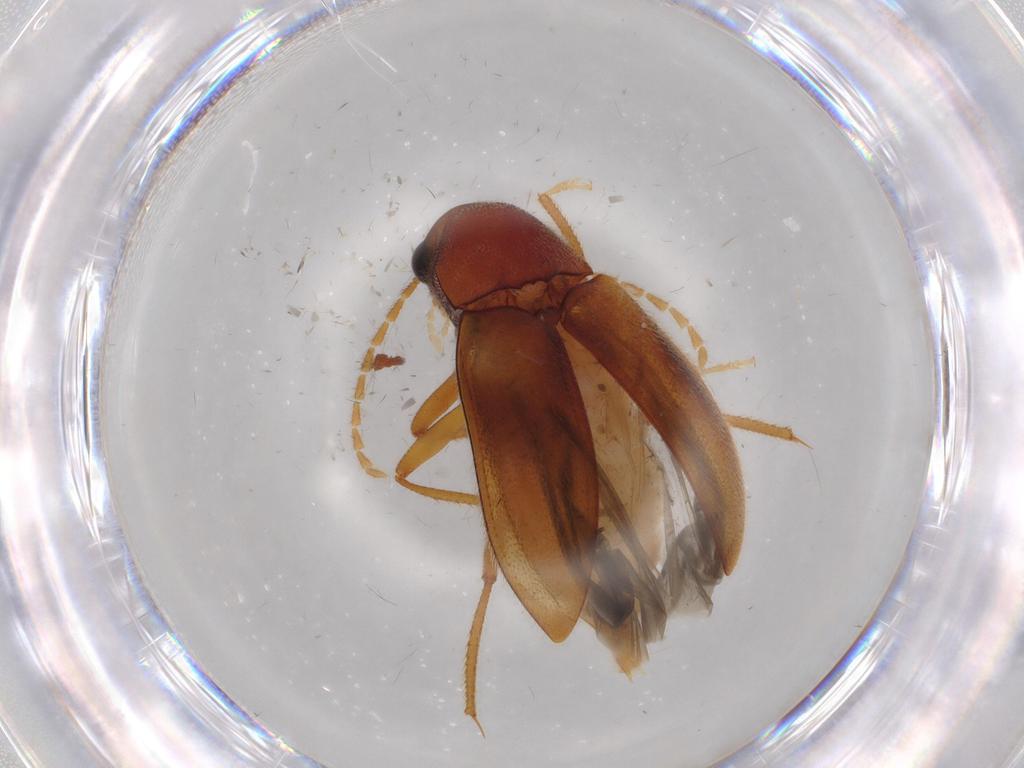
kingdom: Animalia
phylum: Arthropoda
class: Insecta
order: Coleoptera
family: Ptilodactylidae
